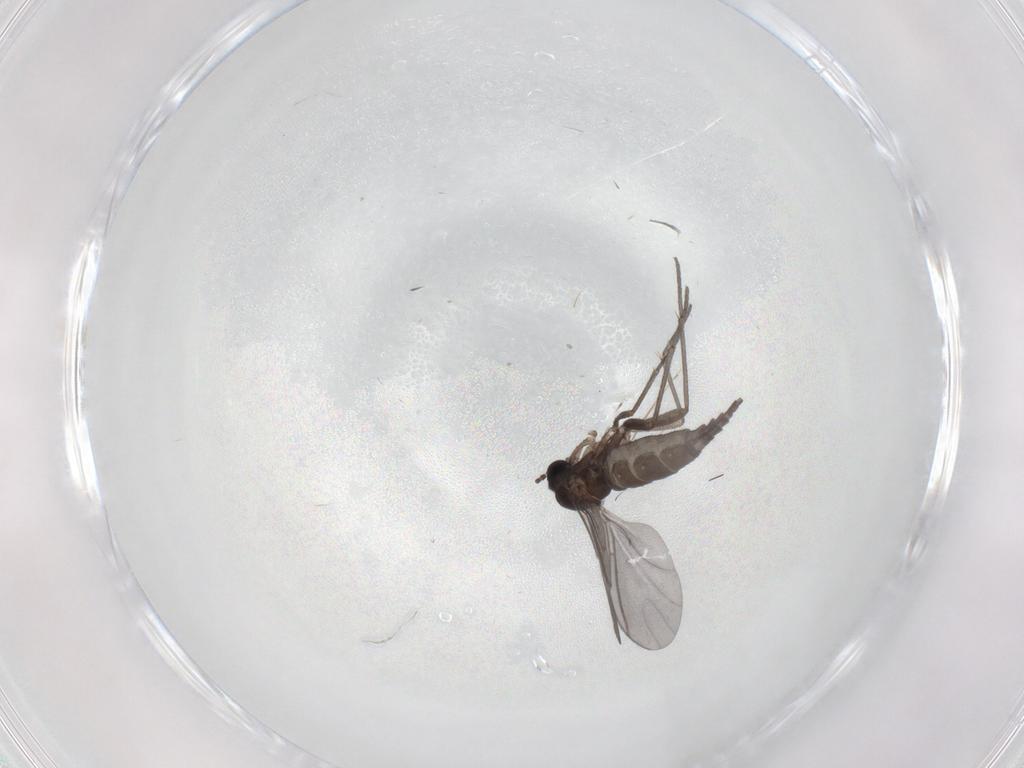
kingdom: Animalia
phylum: Arthropoda
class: Insecta
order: Diptera
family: Sciaridae
